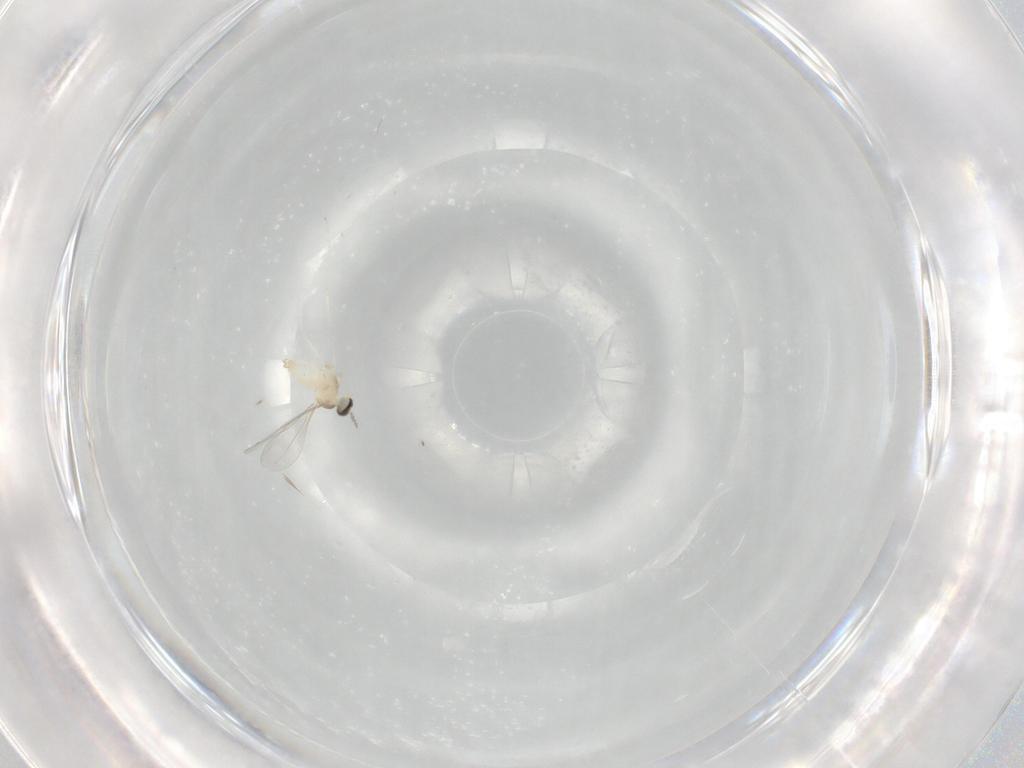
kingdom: Animalia
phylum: Arthropoda
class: Insecta
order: Diptera
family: Cecidomyiidae
